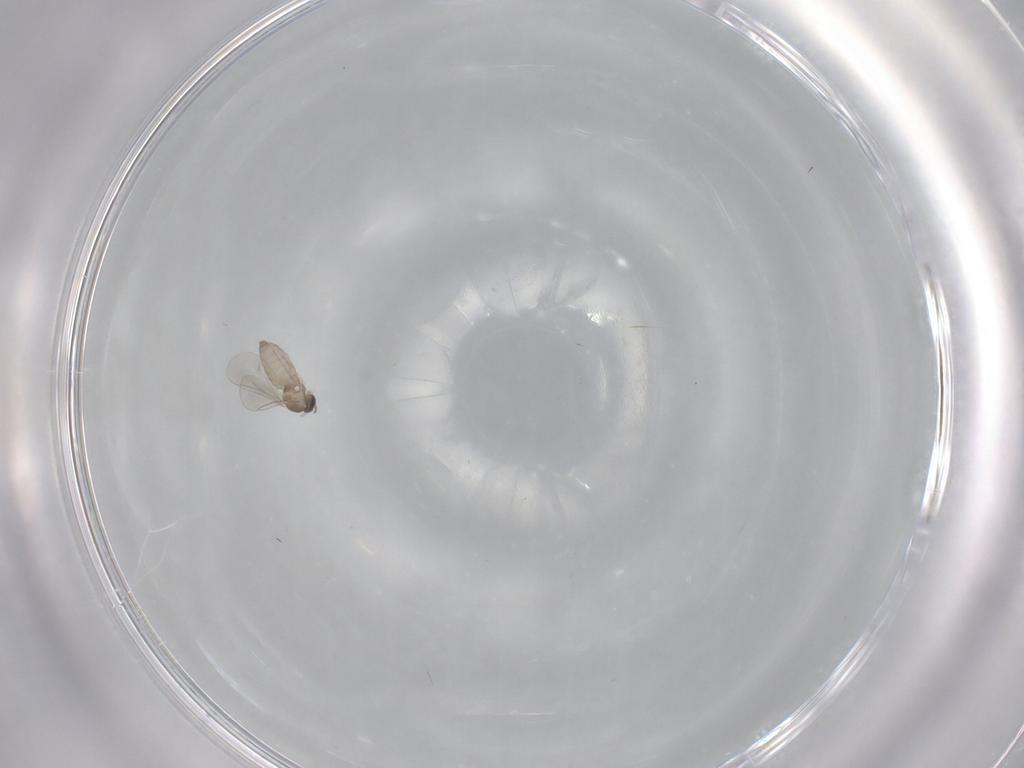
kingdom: Animalia
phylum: Arthropoda
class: Insecta
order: Diptera
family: Cecidomyiidae
